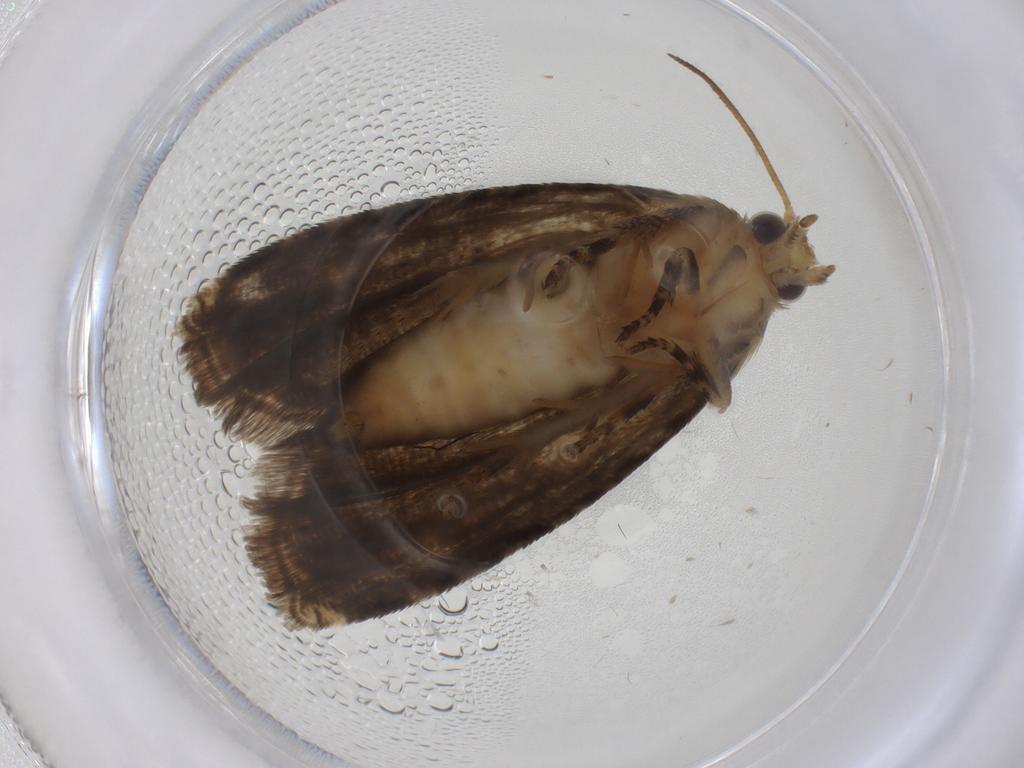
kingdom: Animalia
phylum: Arthropoda
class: Insecta
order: Lepidoptera
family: Tortricidae
